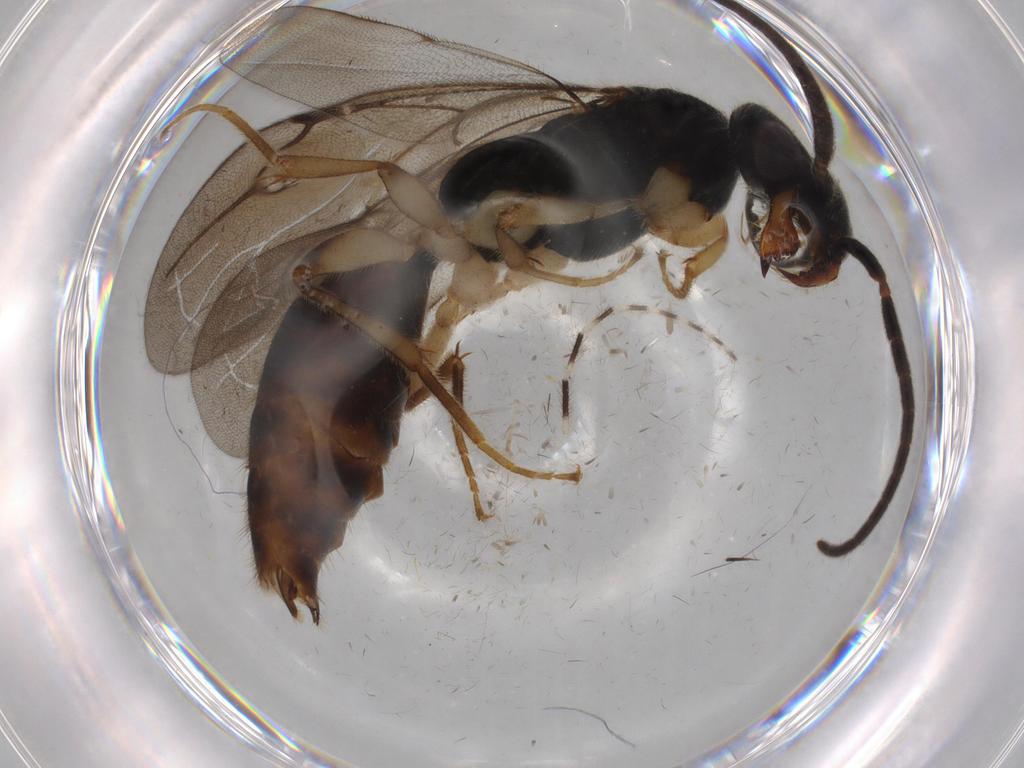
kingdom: Animalia
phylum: Arthropoda
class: Insecta
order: Hymenoptera
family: Bethylidae
